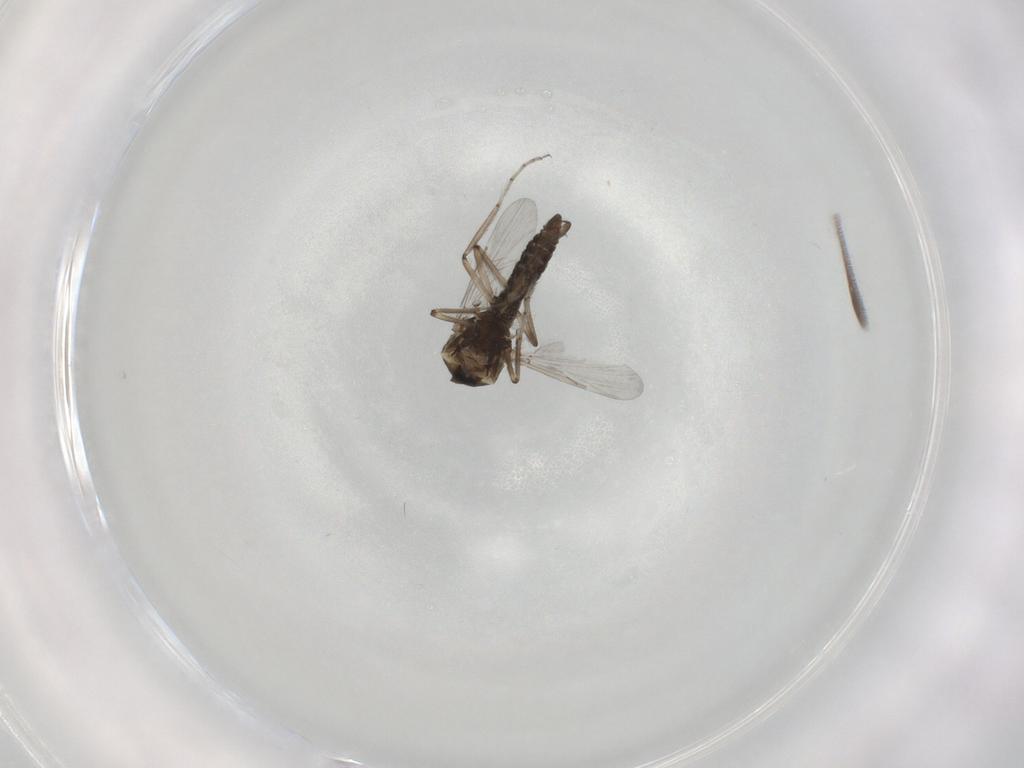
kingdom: Animalia
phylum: Arthropoda
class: Insecta
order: Diptera
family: Ceratopogonidae
